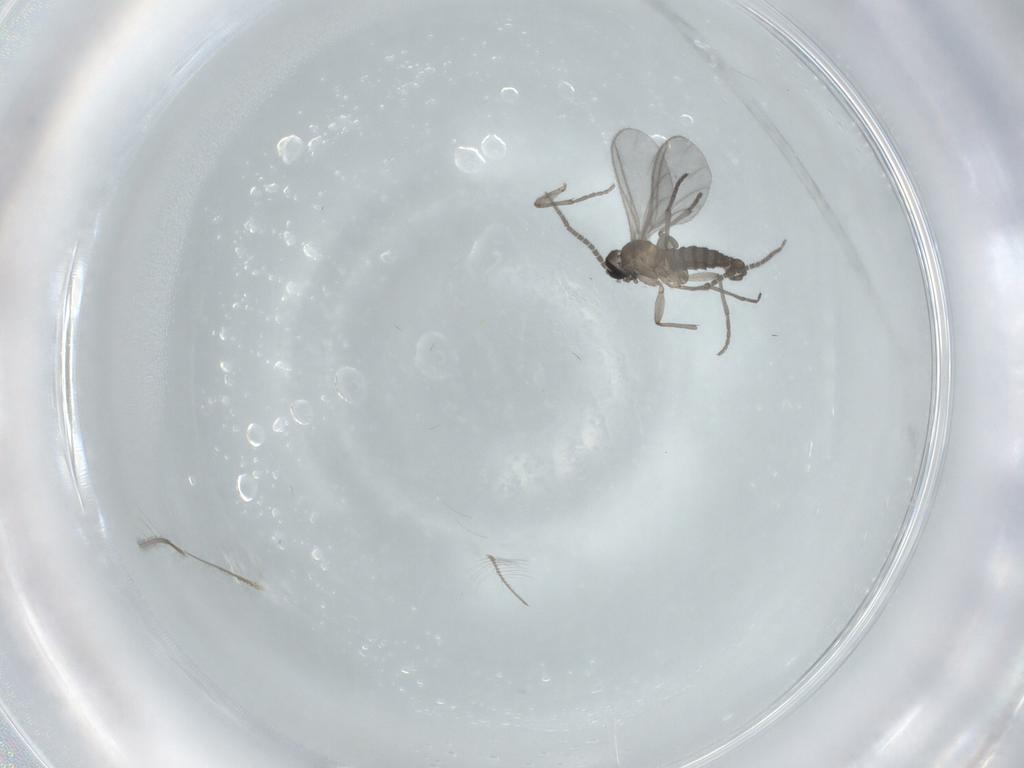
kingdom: Animalia
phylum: Arthropoda
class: Insecta
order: Diptera
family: Sciaridae
